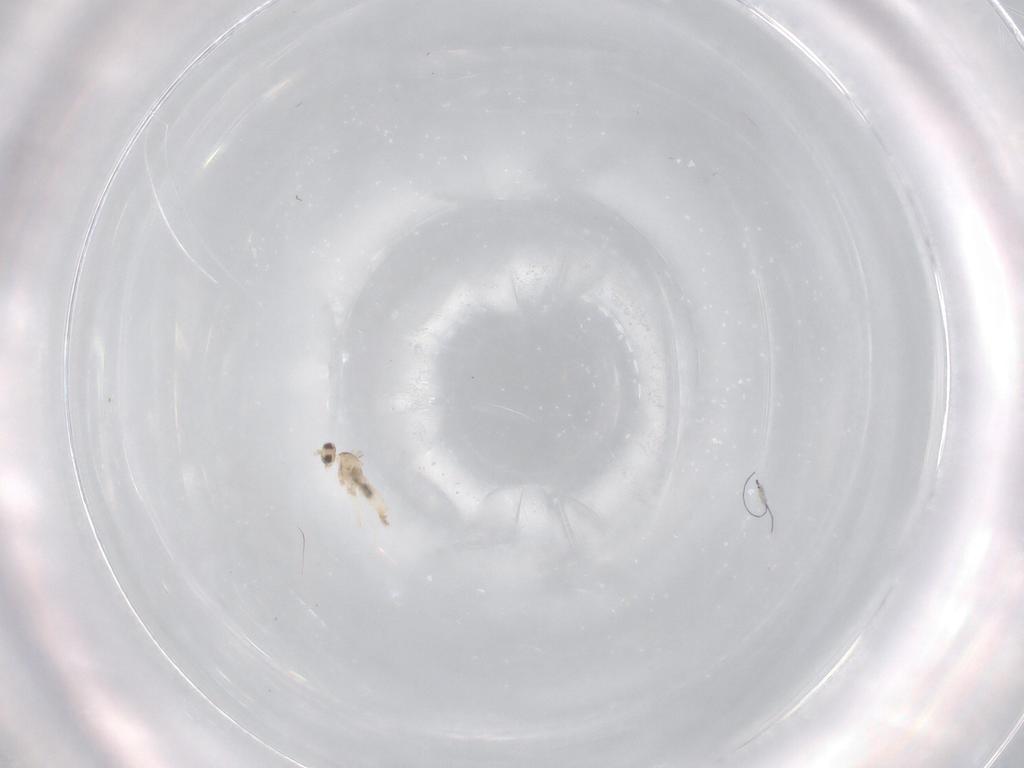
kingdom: Animalia
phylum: Arthropoda
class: Insecta
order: Diptera
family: Cecidomyiidae
